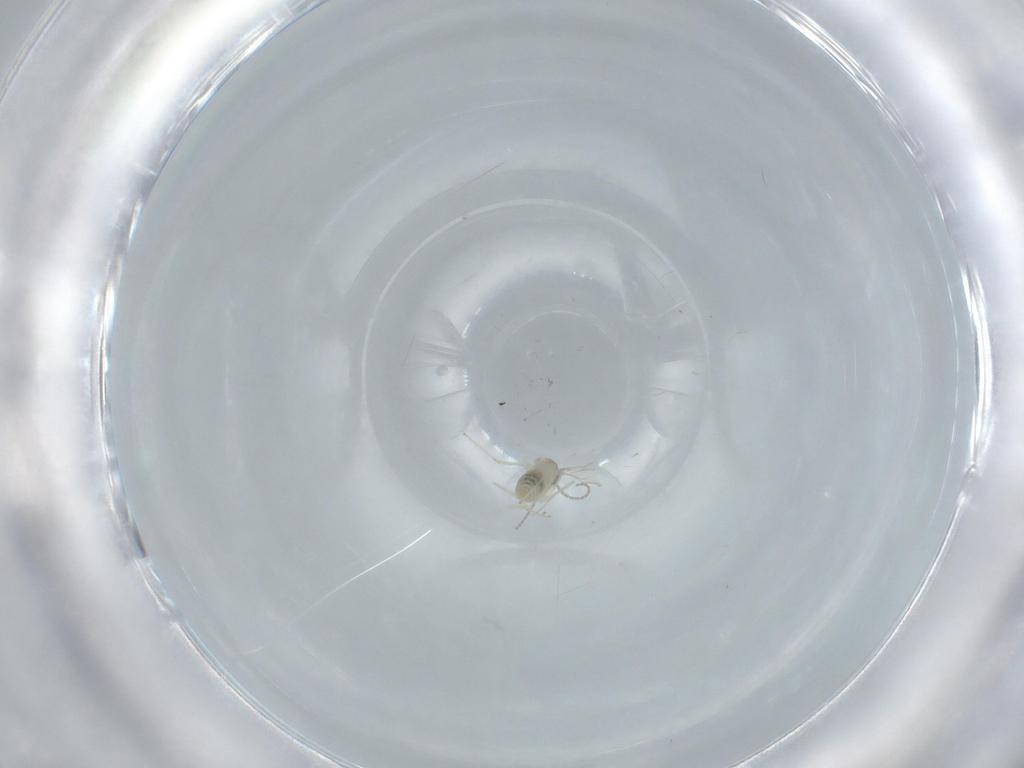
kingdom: Animalia
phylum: Arthropoda
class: Insecta
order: Diptera
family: Cecidomyiidae
